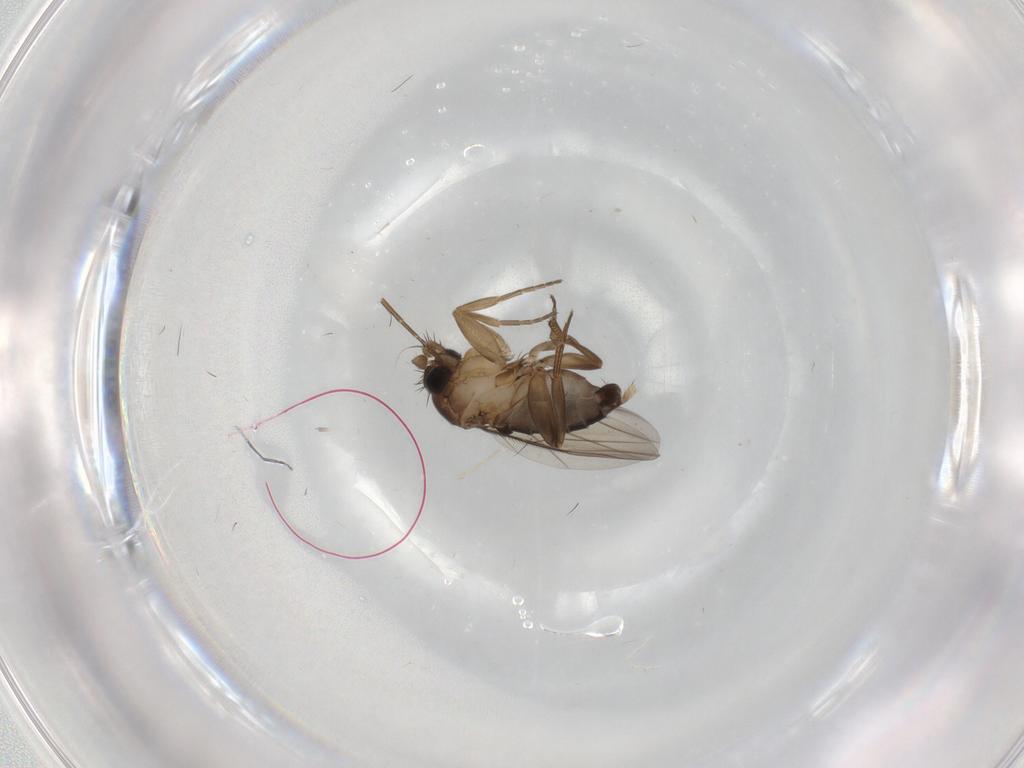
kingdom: Animalia
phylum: Arthropoda
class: Insecta
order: Diptera
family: Phoridae
